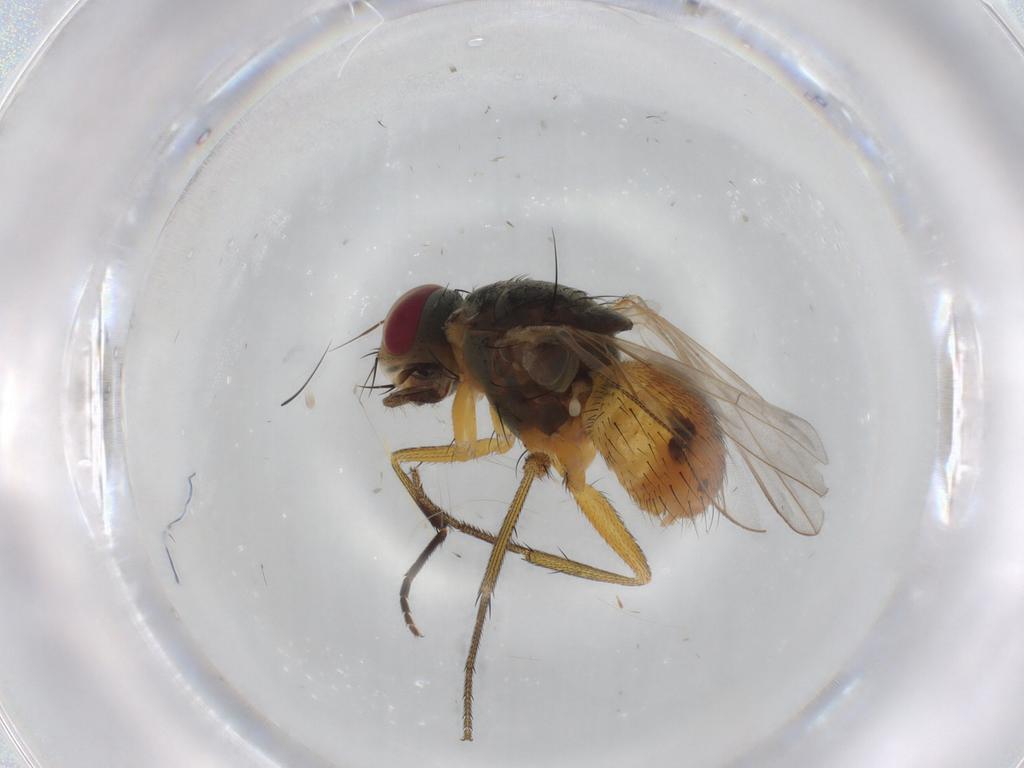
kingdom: Animalia
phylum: Arthropoda
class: Insecta
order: Diptera
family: Muscidae
